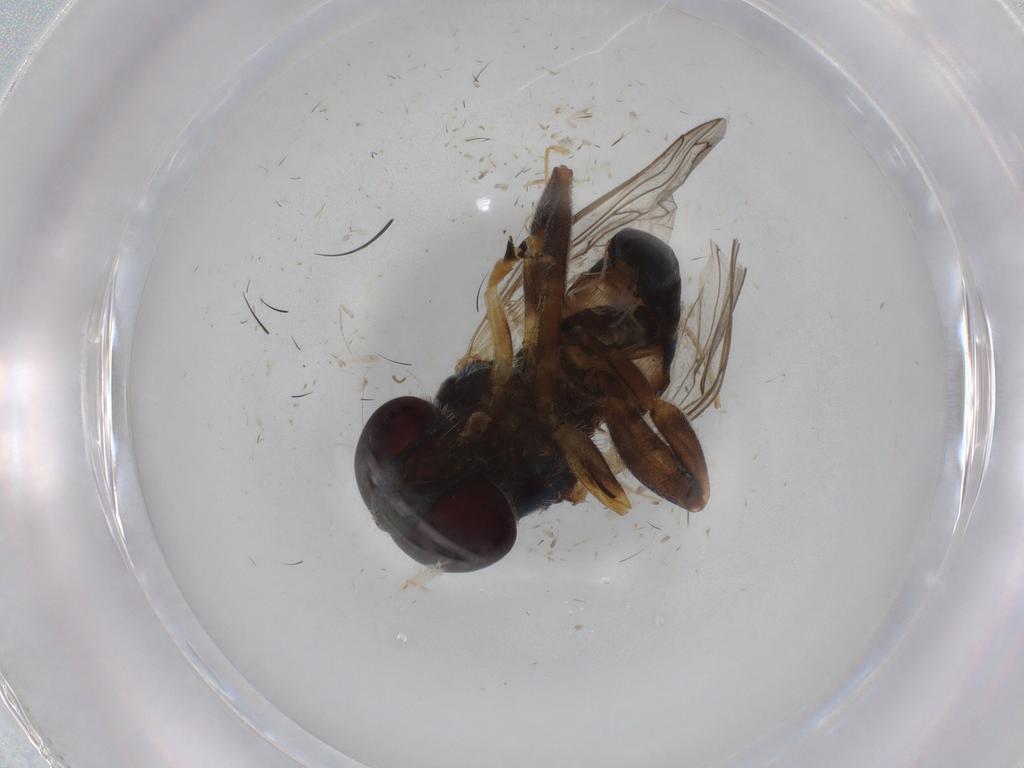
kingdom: Animalia
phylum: Arthropoda
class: Insecta
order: Diptera
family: Cecidomyiidae
